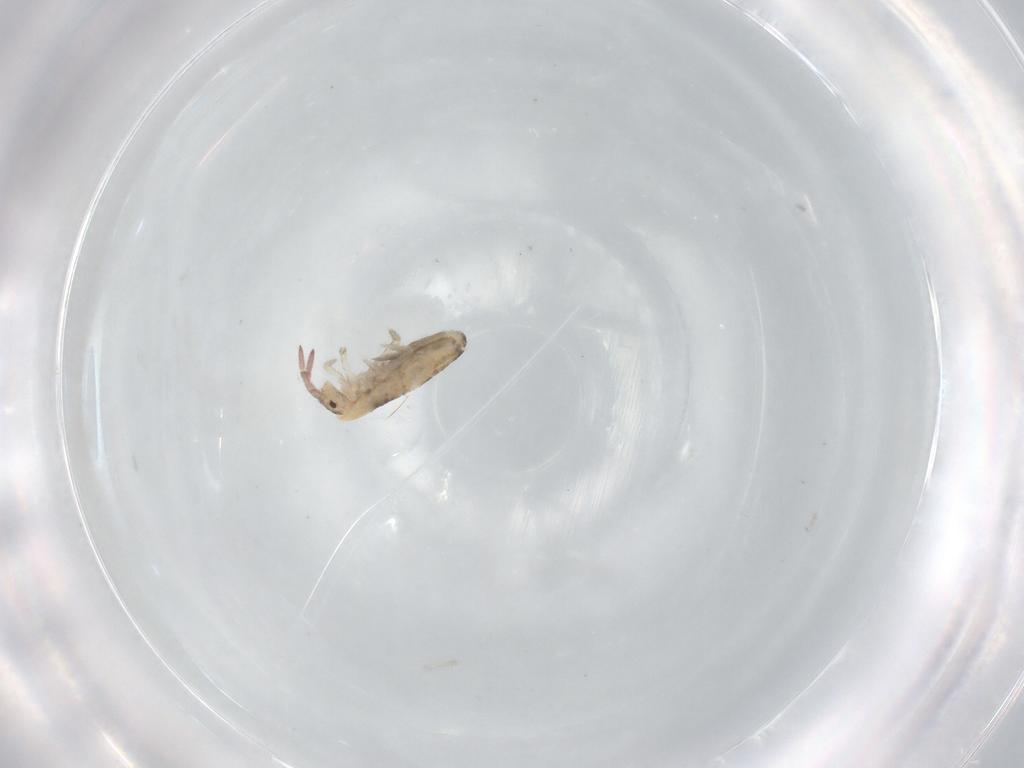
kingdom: Animalia
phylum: Arthropoda
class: Collembola
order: Entomobryomorpha
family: Entomobryidae
